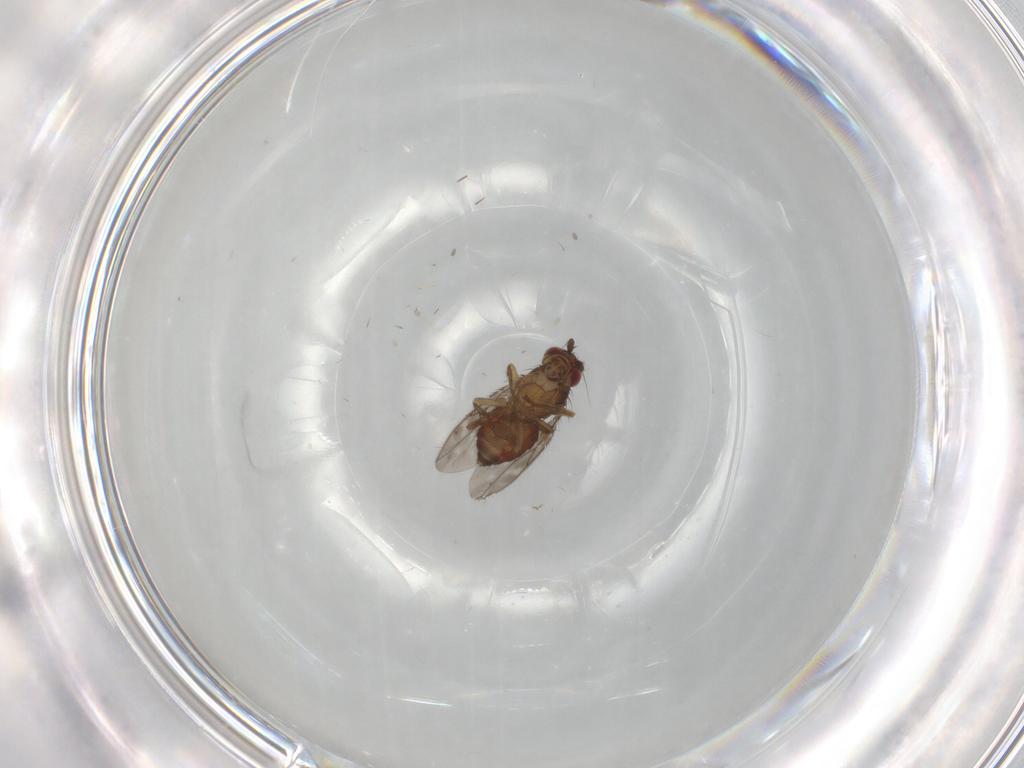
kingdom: Animalia
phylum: Arthropoda
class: Insecta
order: Diptera
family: Sphaeroceridae
